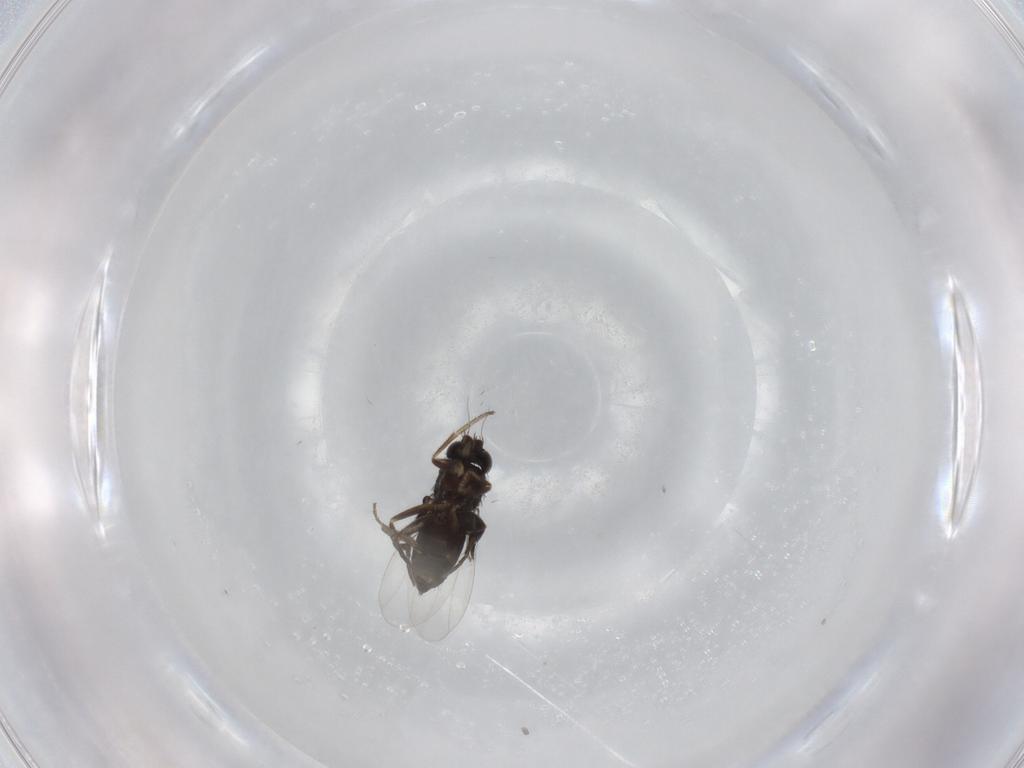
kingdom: Animalia
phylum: Arthropoda
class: Insecta
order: Diptera
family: Phoridae
